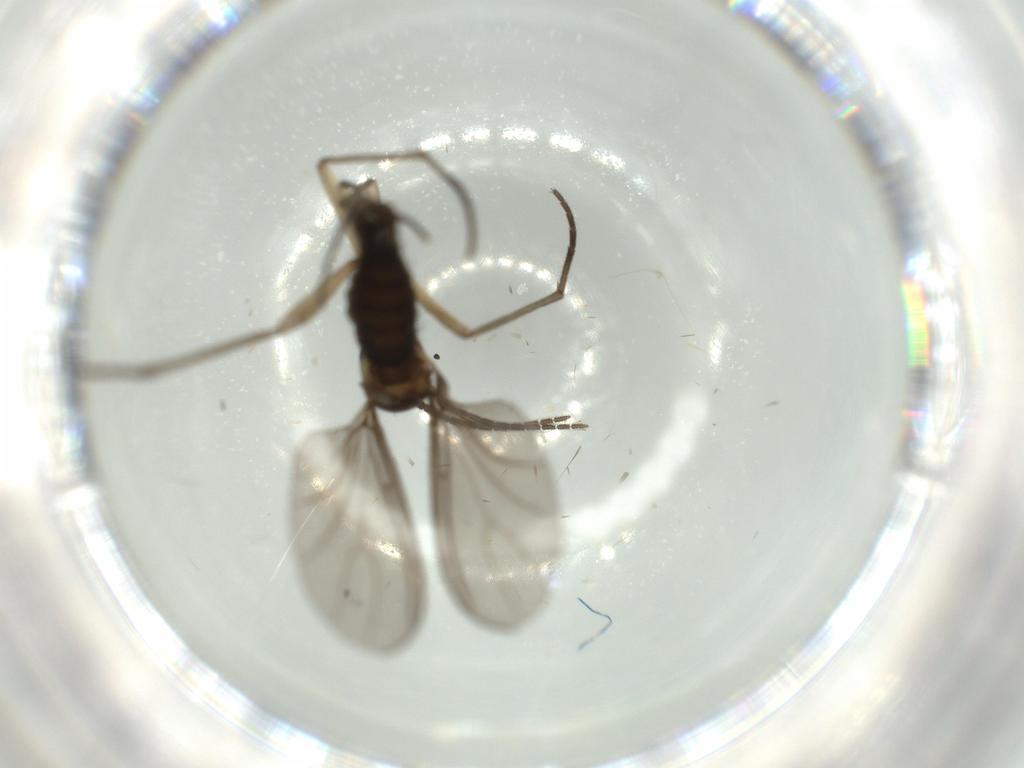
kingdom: Animalia
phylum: Arthropoda
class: Insecta
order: Diptera
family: Sciaridae
